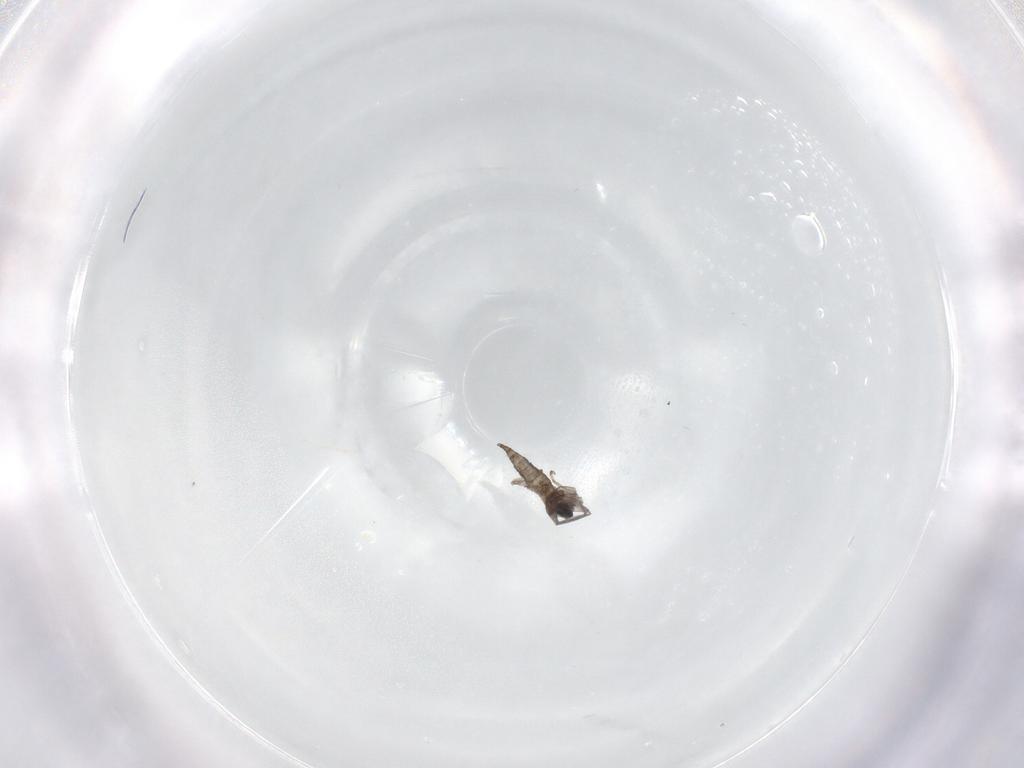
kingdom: Animalia
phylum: Arthropoda
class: Insecta
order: Diptera
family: Cecidomyiidae
